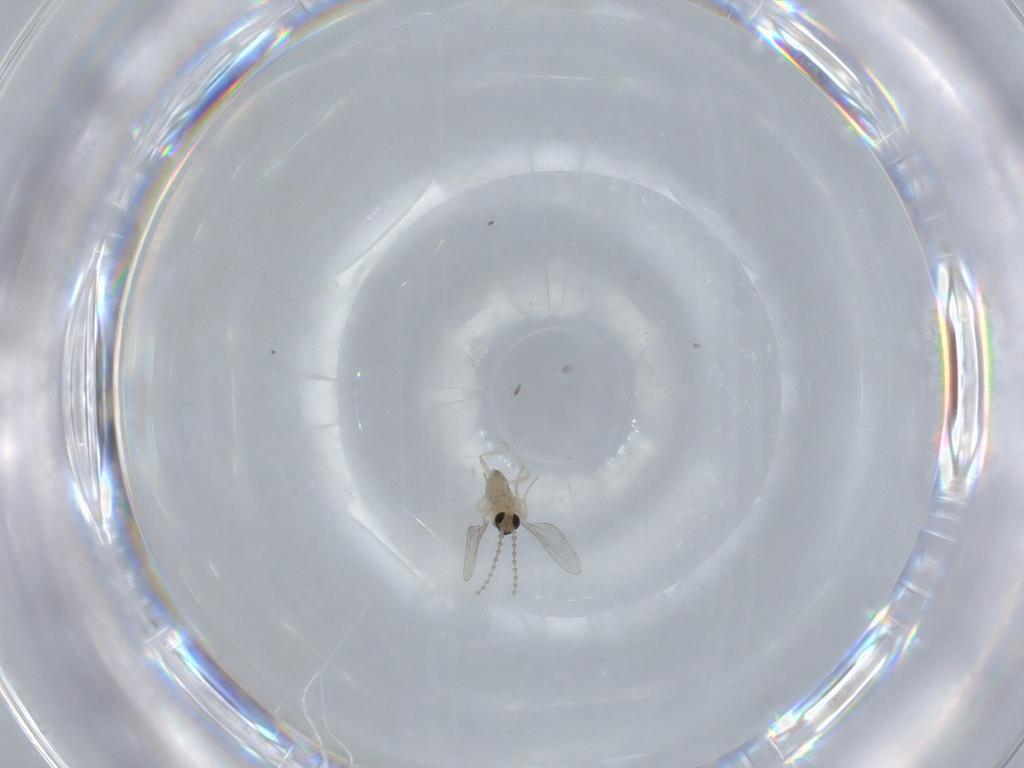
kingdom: Animalia
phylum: Arthropoda
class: Insecta
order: Diptera
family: Cecidomyiidae
